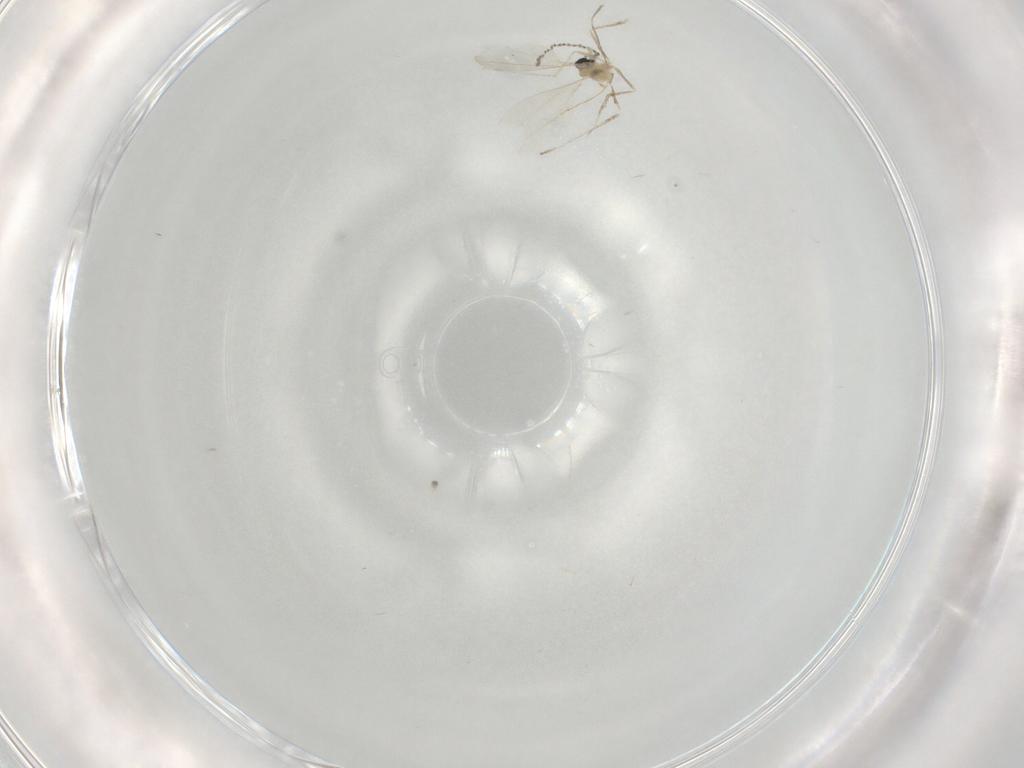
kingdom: Animalia
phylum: Arthropoda
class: Insecta
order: Diptera
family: Cecidomyiidae
